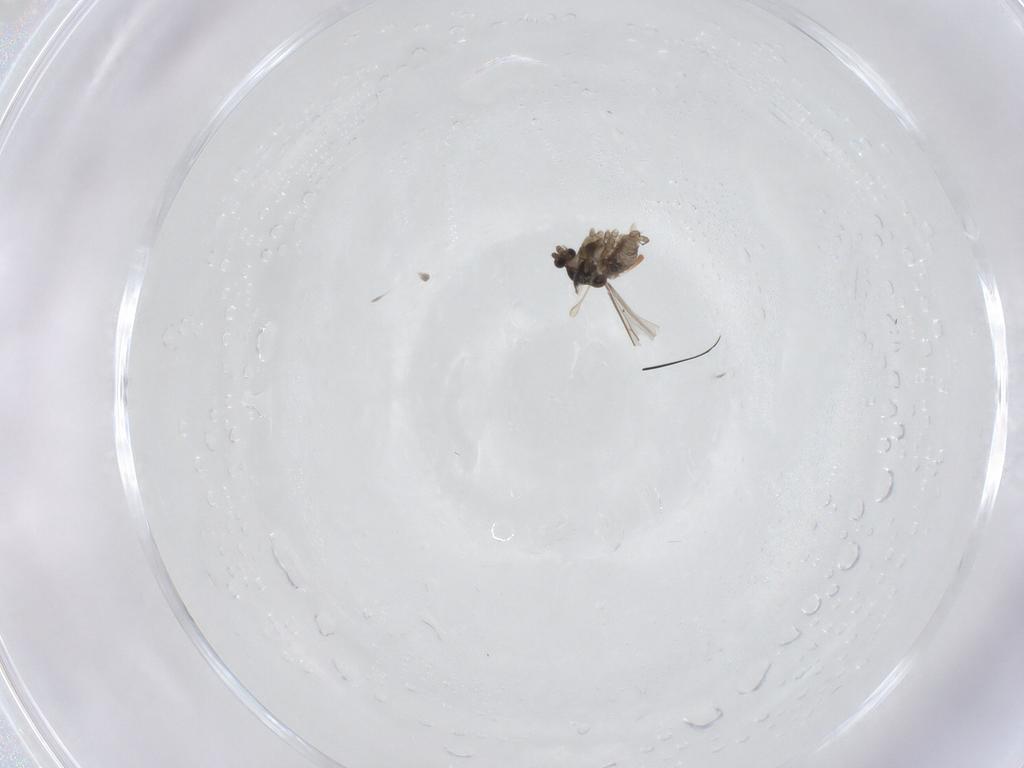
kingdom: Animalia
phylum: Arthropoda
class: Insecta
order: Diptera
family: Cecidomyiidae
